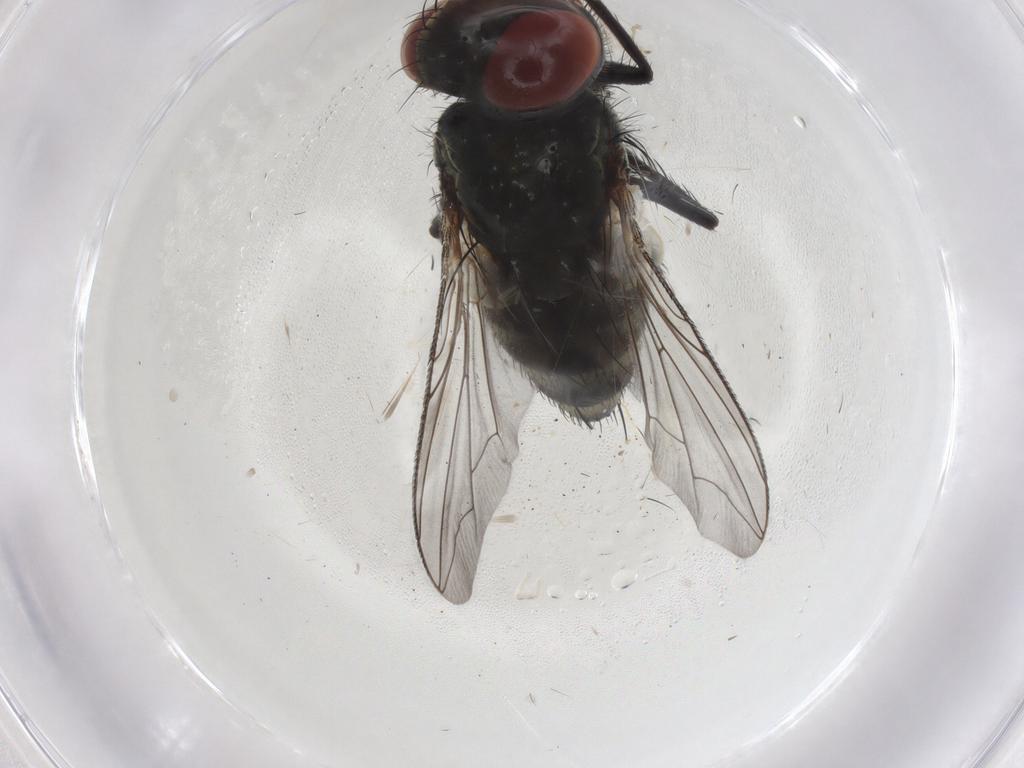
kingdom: Animalia
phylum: Arthropoda
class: Insecta
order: Diptera
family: Sarcophagidae
